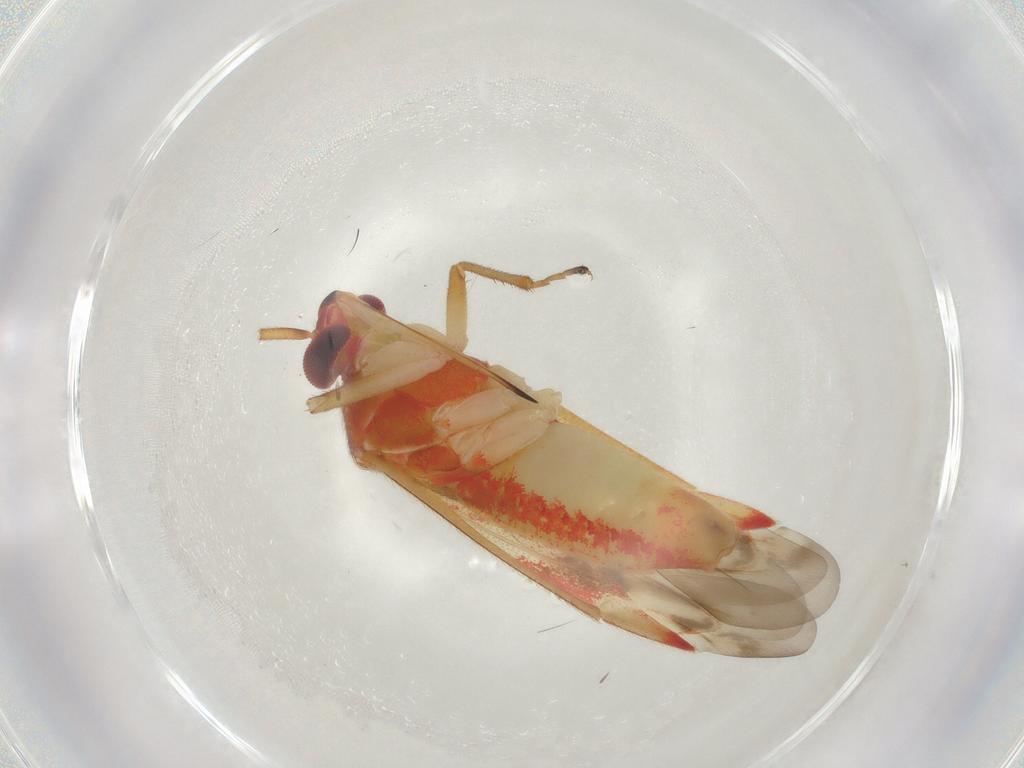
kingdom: Animalia
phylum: Arthropoda
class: Insecta
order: Hemiptera
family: Miridae
